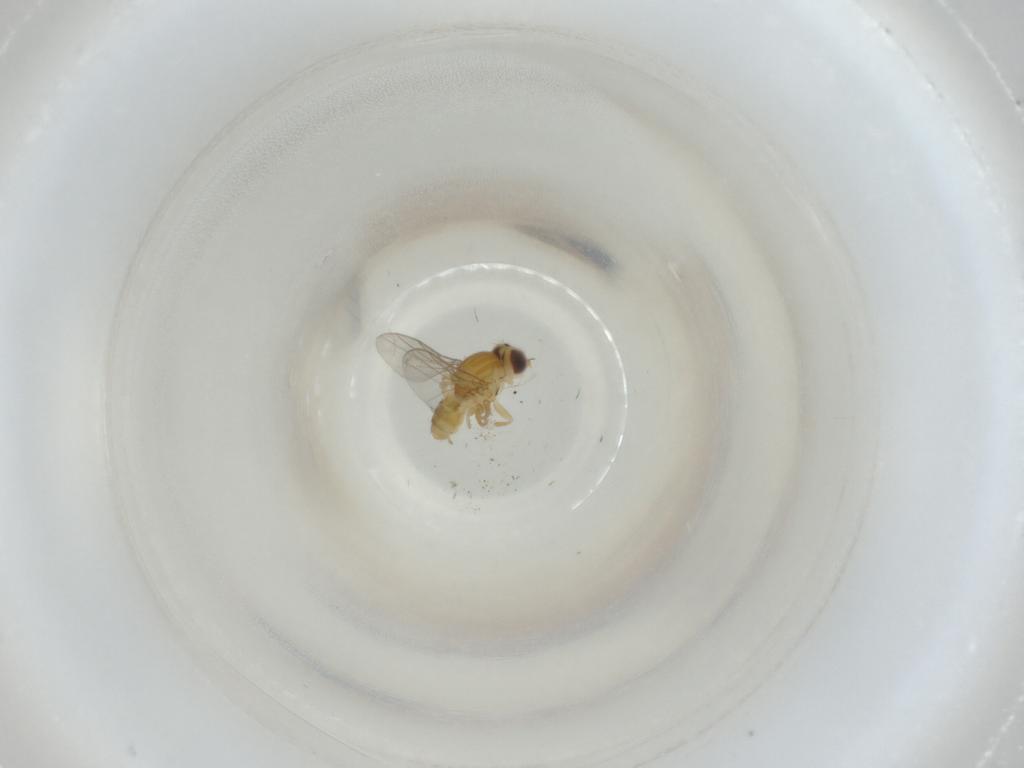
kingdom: Animalia
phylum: Arthropoda
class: Insecta
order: Diptera
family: Chloropidae
